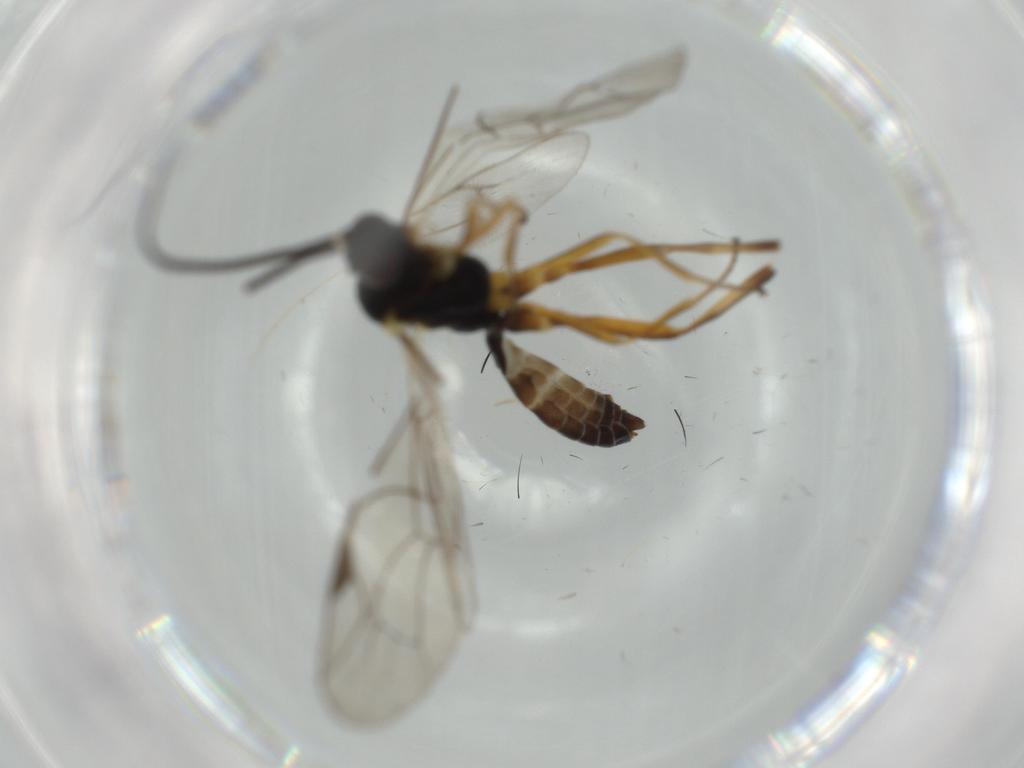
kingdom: Animalia
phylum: Arthropoda
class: Insecta
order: Hymenoptera
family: Ichneumonidae
